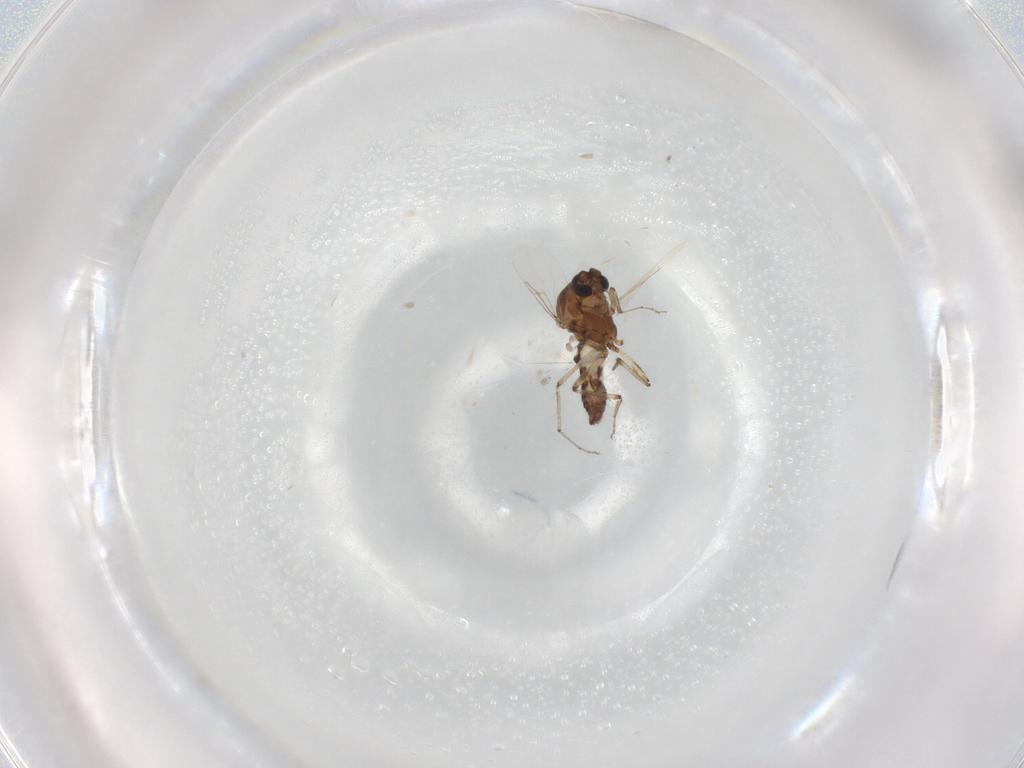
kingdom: Animalia
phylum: Arthropoda
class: Insecta
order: Diptera
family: Ceratopogonidae
